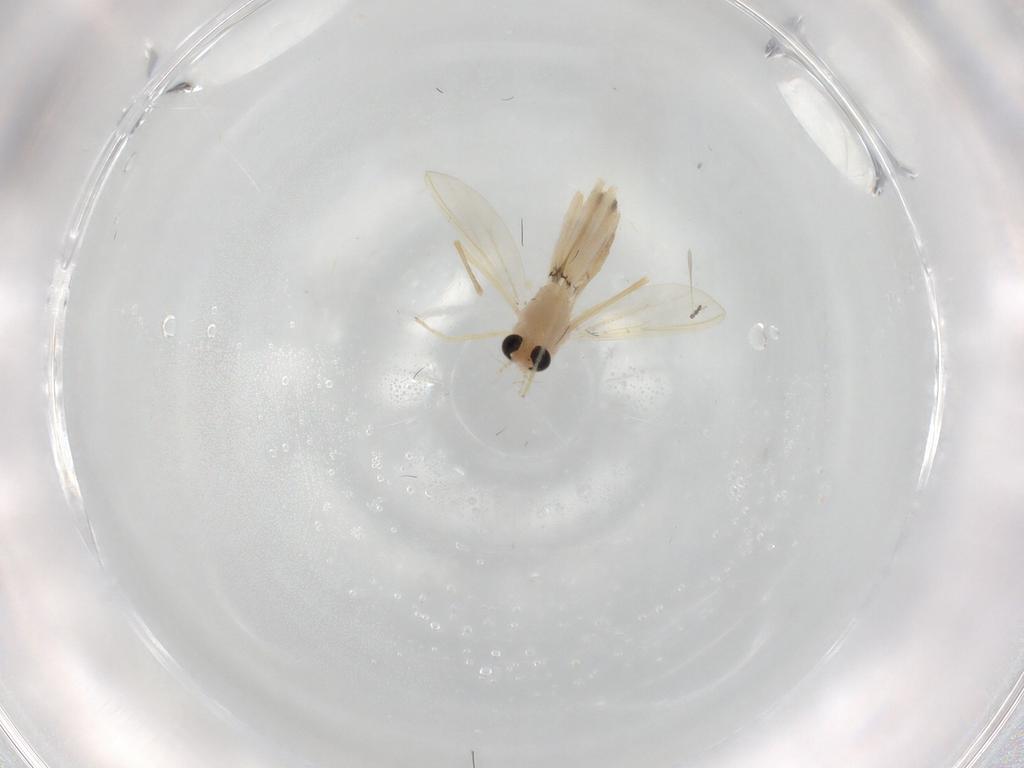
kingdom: Animalia
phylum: Arthropoda
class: Insecta
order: Diptera
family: Chironomidae
